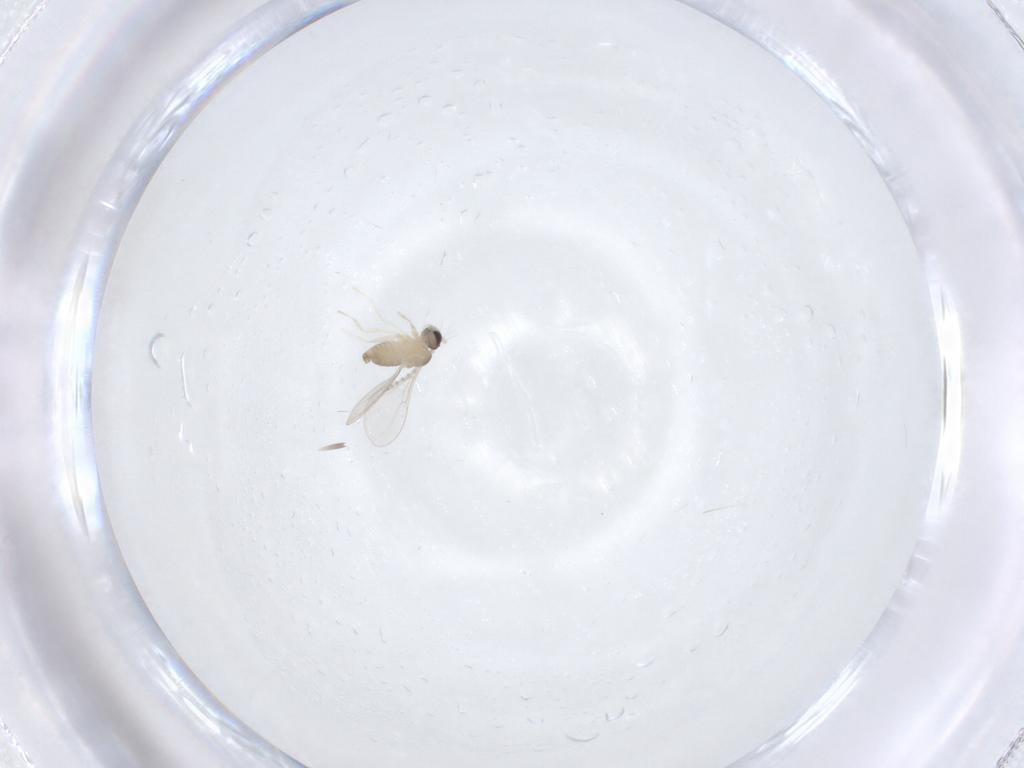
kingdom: Animalia
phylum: Arthropoda
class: Insecta
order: Diptera
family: Cecidomyiidae
